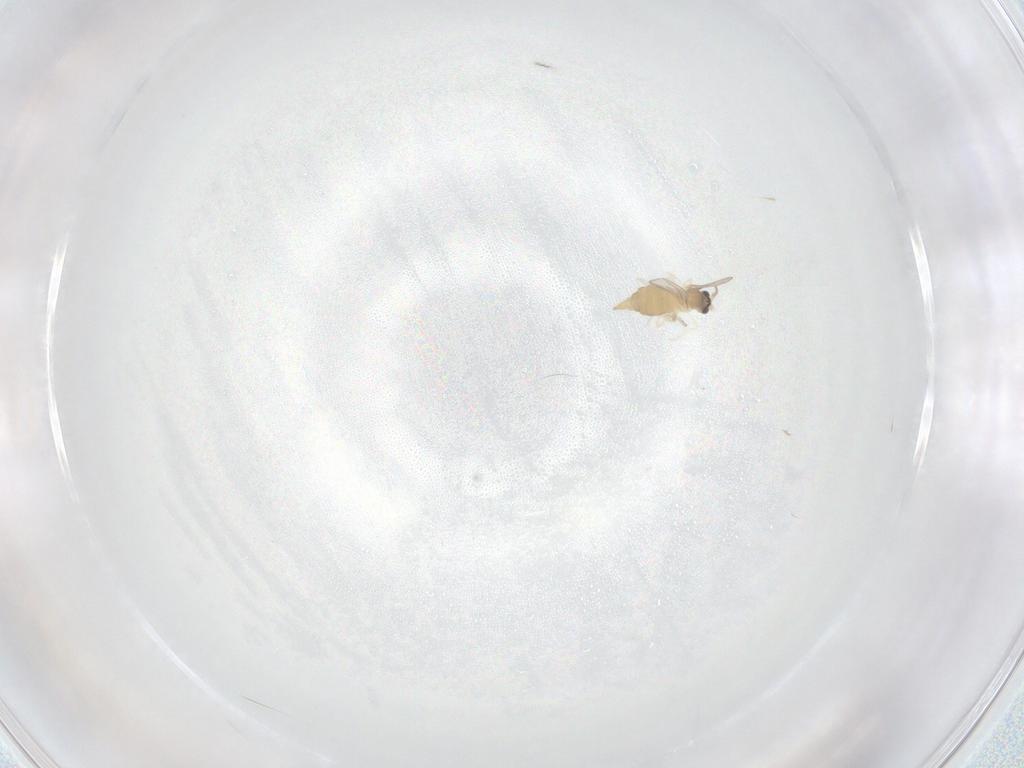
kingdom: Animalia
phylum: Arthropoda
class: Insecta
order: Diptera
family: Cecidomyiidae
